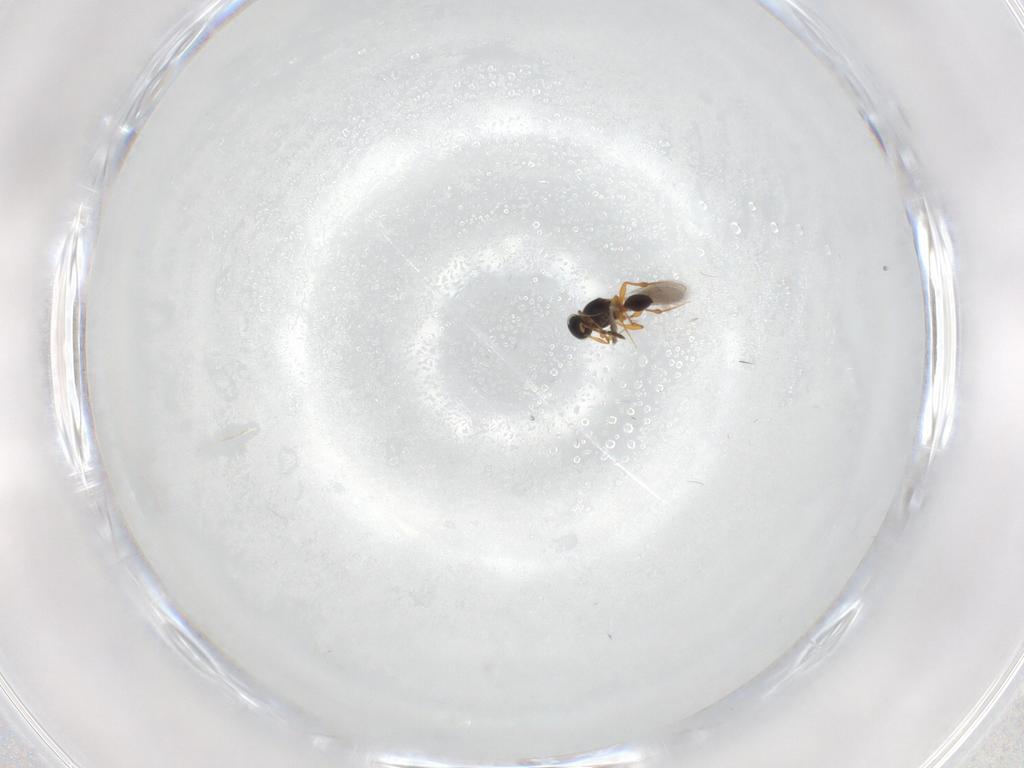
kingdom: Animalia
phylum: Arthropoda
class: Insecta
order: Hymenoptera
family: Platygastridae
